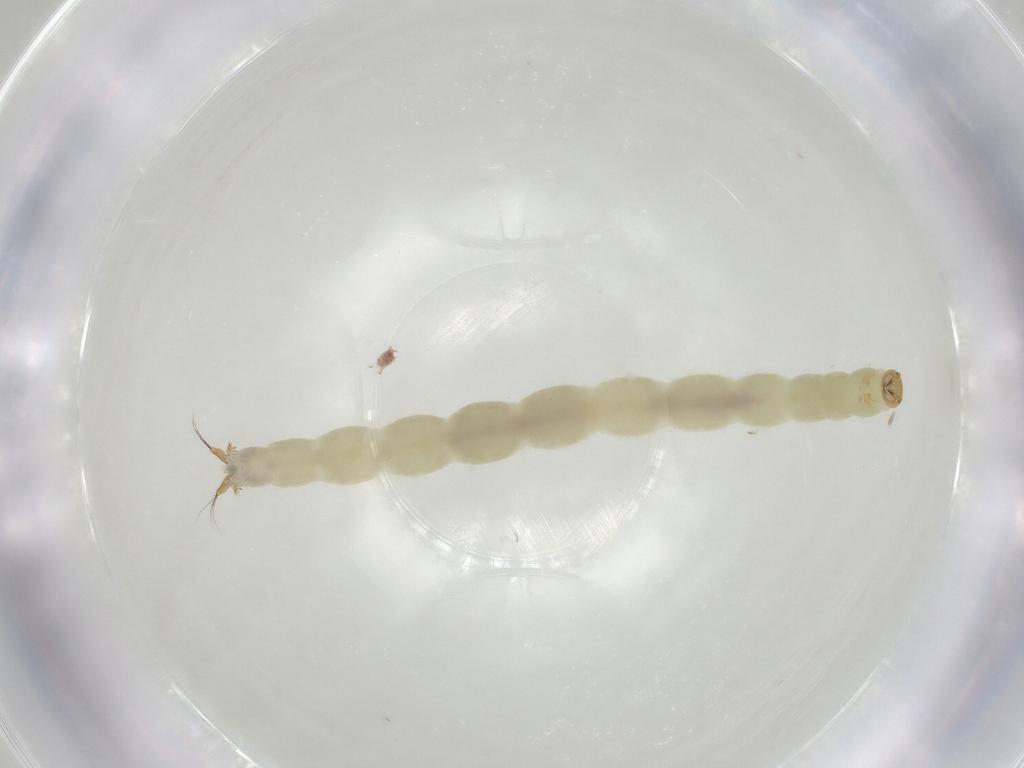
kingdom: Animalia
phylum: Arthropoda
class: Insecta
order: Diptera
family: Chironomidae
